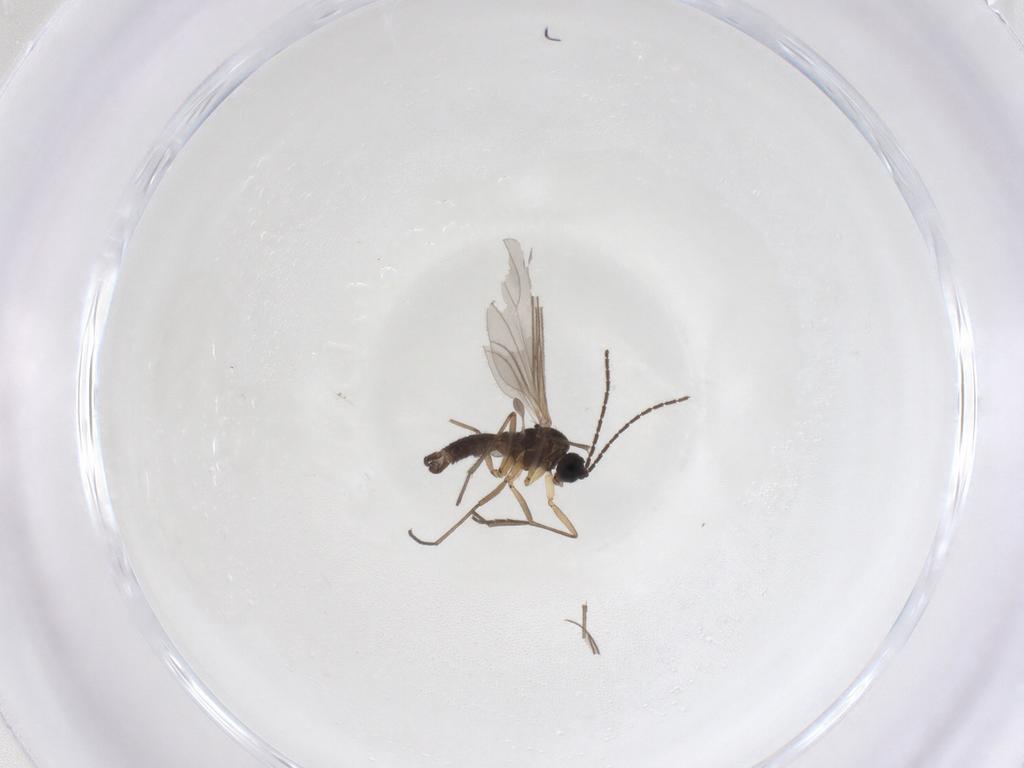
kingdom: Animalia
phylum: Arthropoda
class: Insecta
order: Diptera
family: Sciaridae
